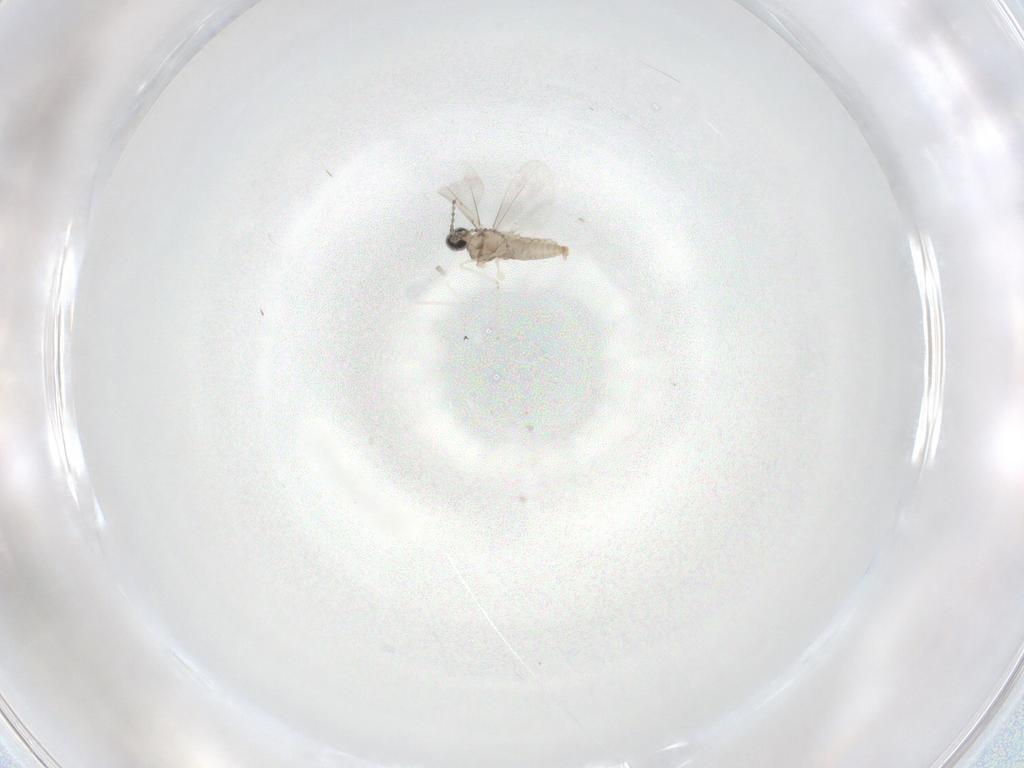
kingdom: Animalia
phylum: Arthropoda
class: Insecta
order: Diptera
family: Cecidomyiidae
